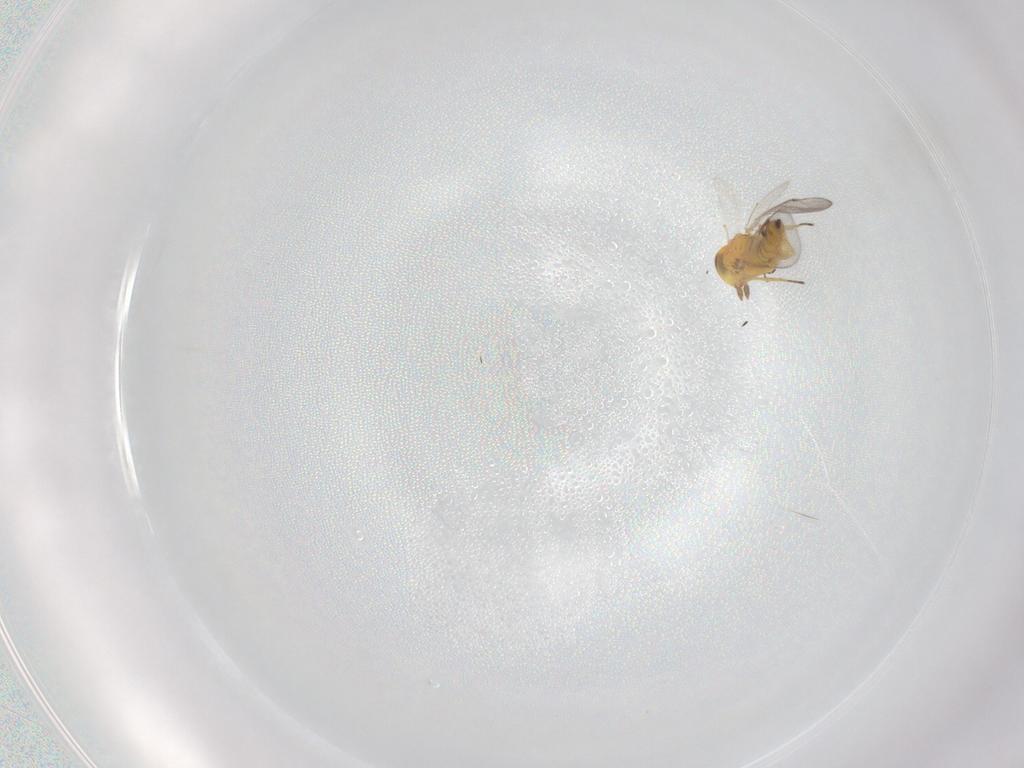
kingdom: Animalia
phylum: Arthropoda
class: Insecta
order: Hymenoptera
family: Eulophidae
